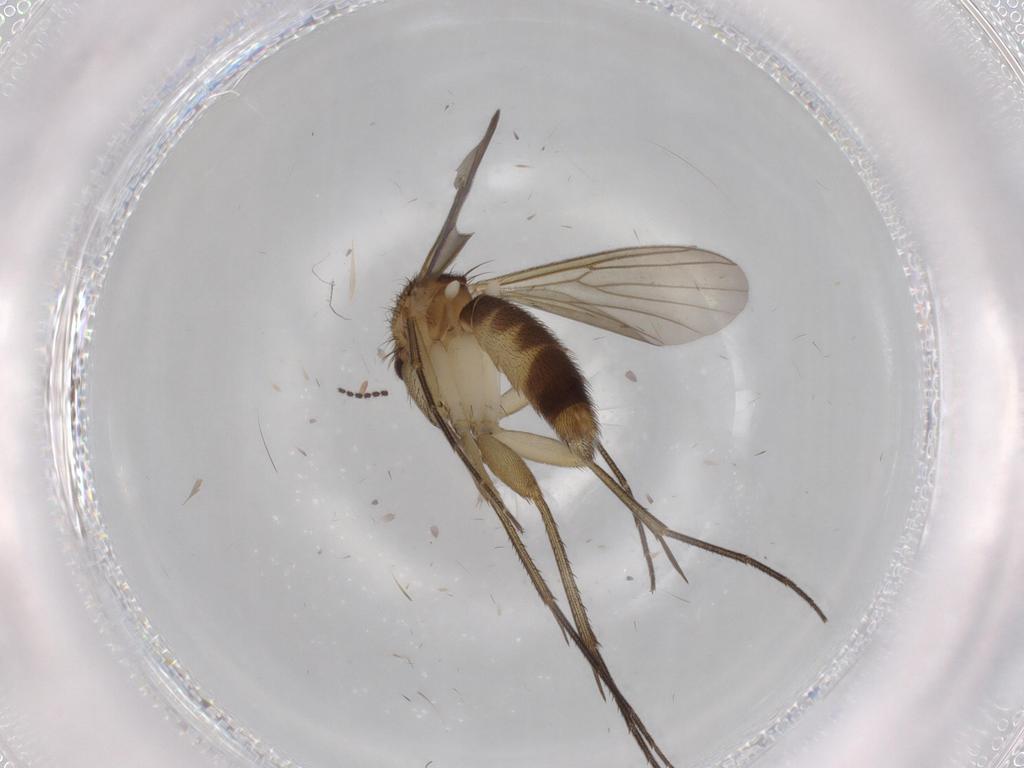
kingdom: Animalia
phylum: Arthropoda
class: Insecta
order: Diptera
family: Mycetophilidae
